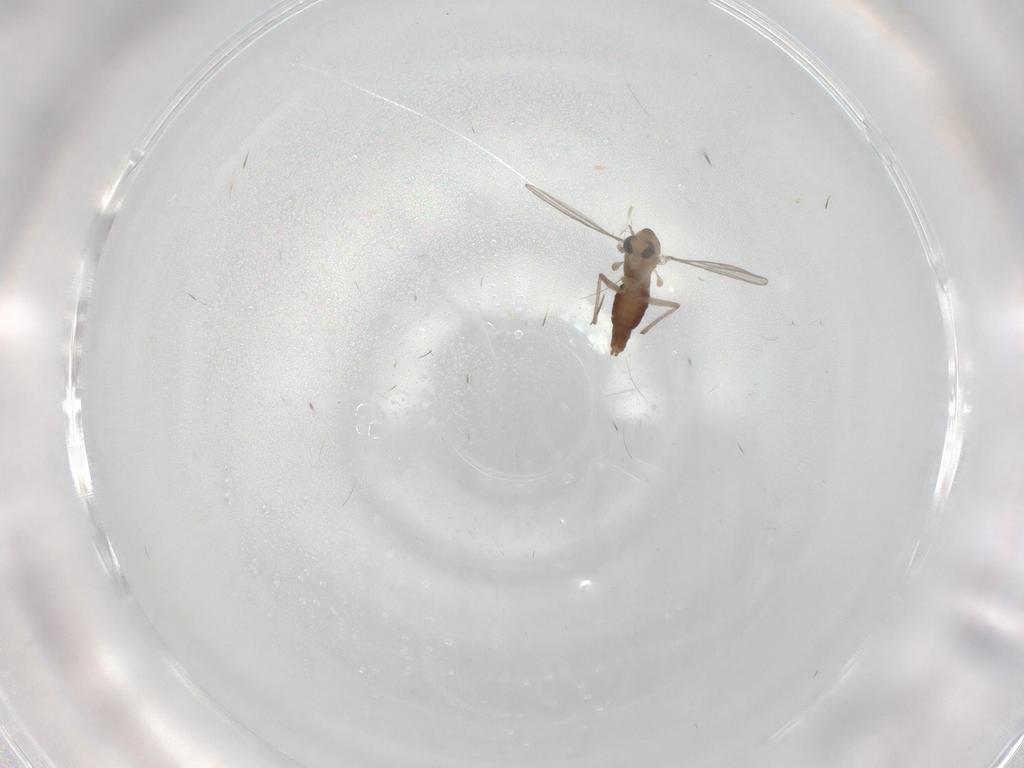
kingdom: Animalia
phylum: Arthropoda
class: Insecta
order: Diptera
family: Chironomidae
